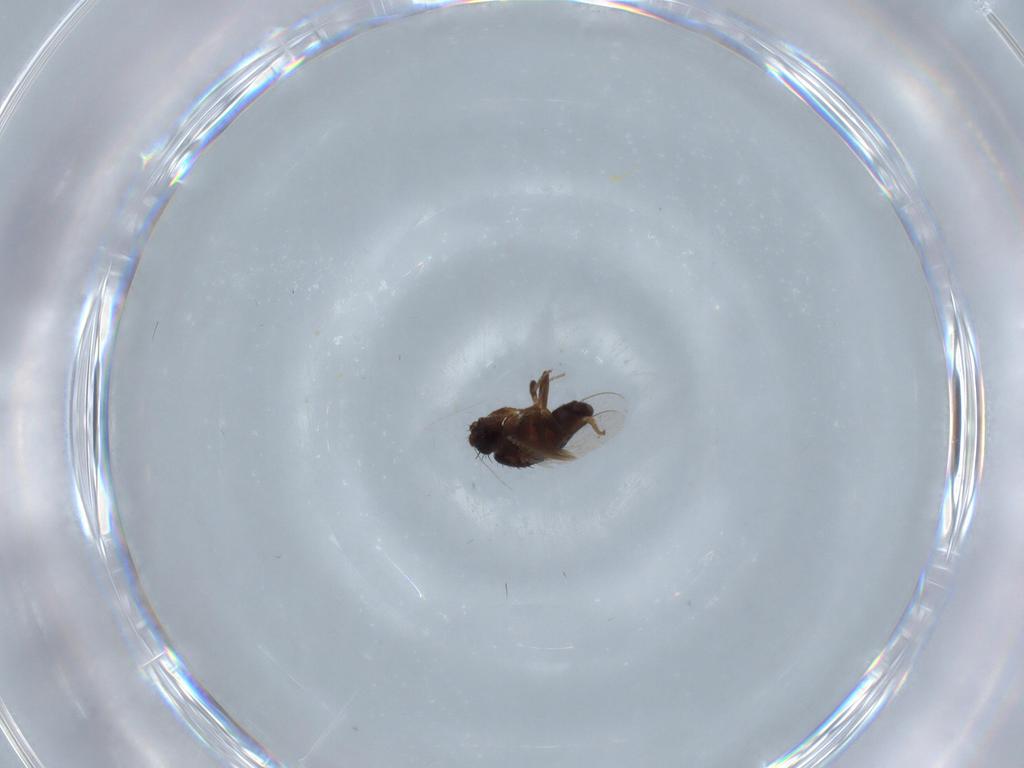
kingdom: Animalia
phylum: Arthropoda
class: Insecta
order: Diptera
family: Sphaeroceridae
